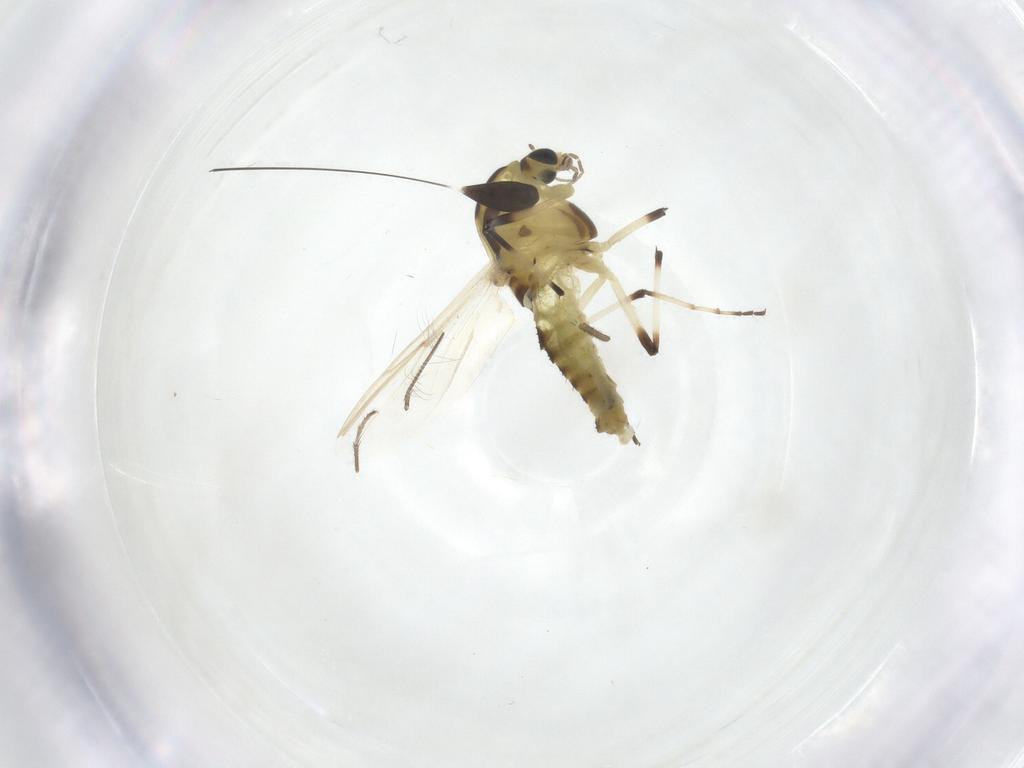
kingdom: Animalia
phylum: Arthropoda
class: Insecta
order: Diptera
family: Chironomidae
